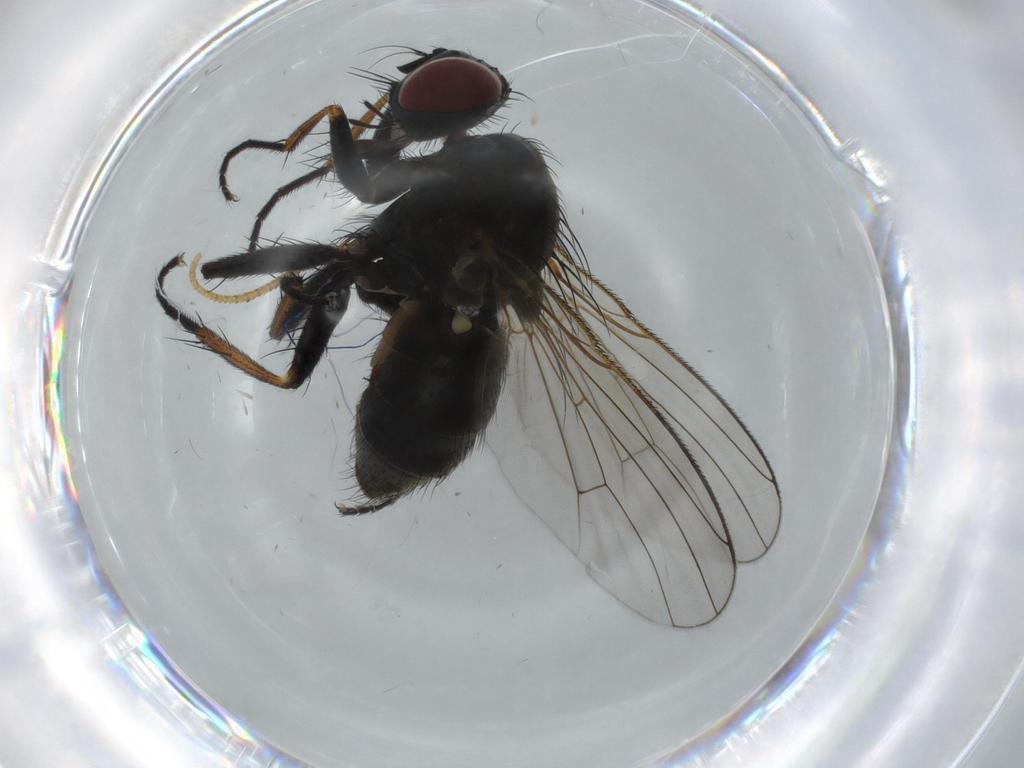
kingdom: Animalia
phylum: Arthropoda
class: Insecta
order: Diptera
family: Muscidae
